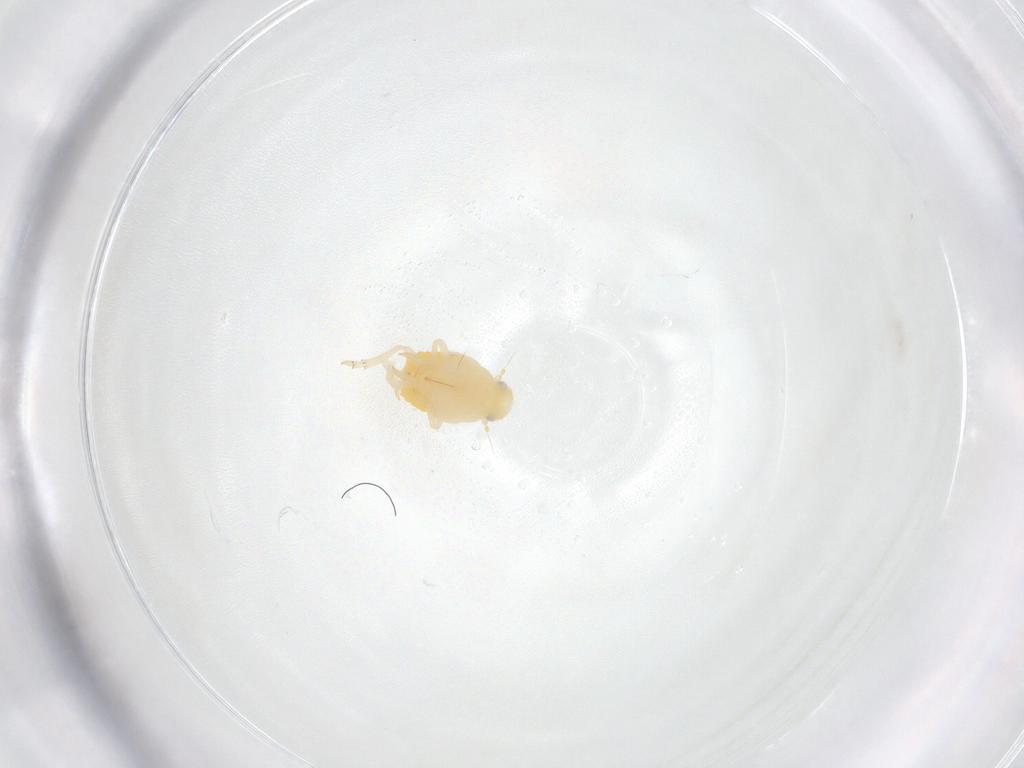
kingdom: Animalia
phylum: Arthropoda
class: Insecta
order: Hemiptera
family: Flatidae
